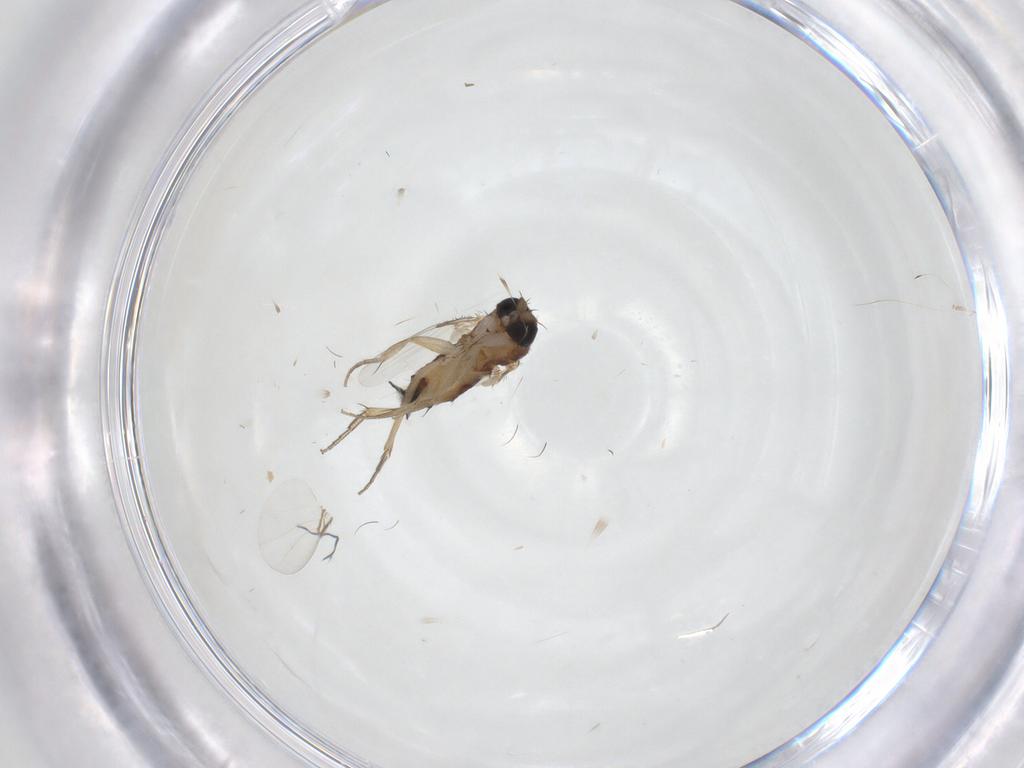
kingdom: Animalia
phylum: Arthropoda
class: Insecta
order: Diptera
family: Phoridae
